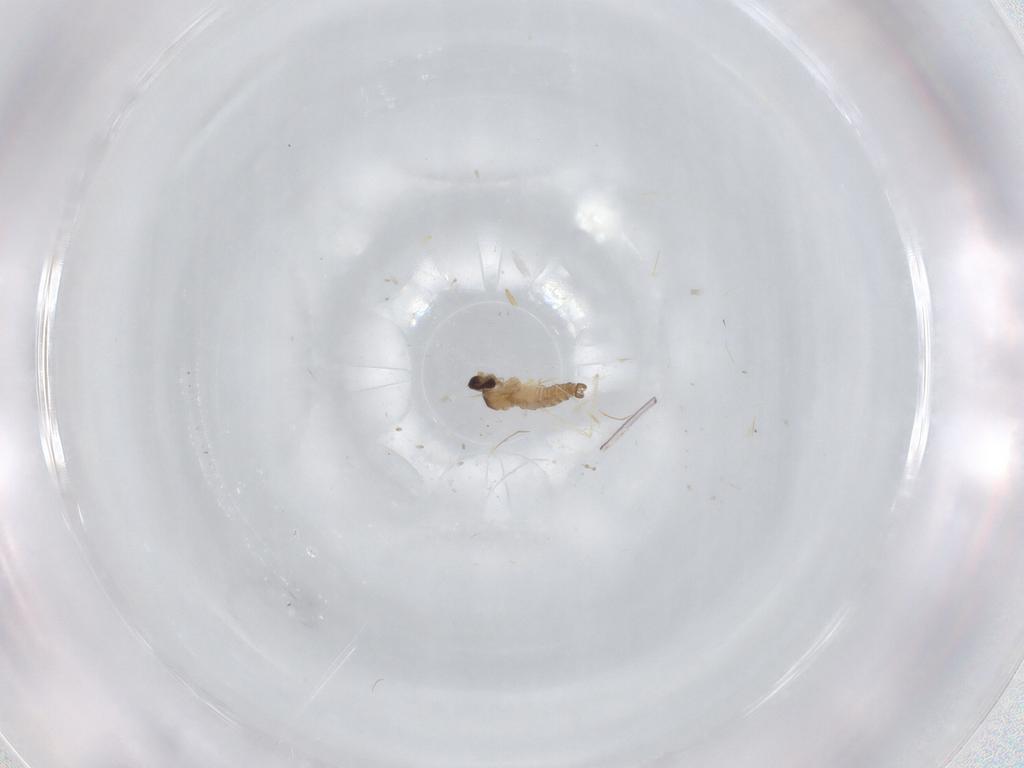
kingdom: Animalia
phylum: Arthropoda
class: Insecta
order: Diptera
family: Cecidomyiidae
